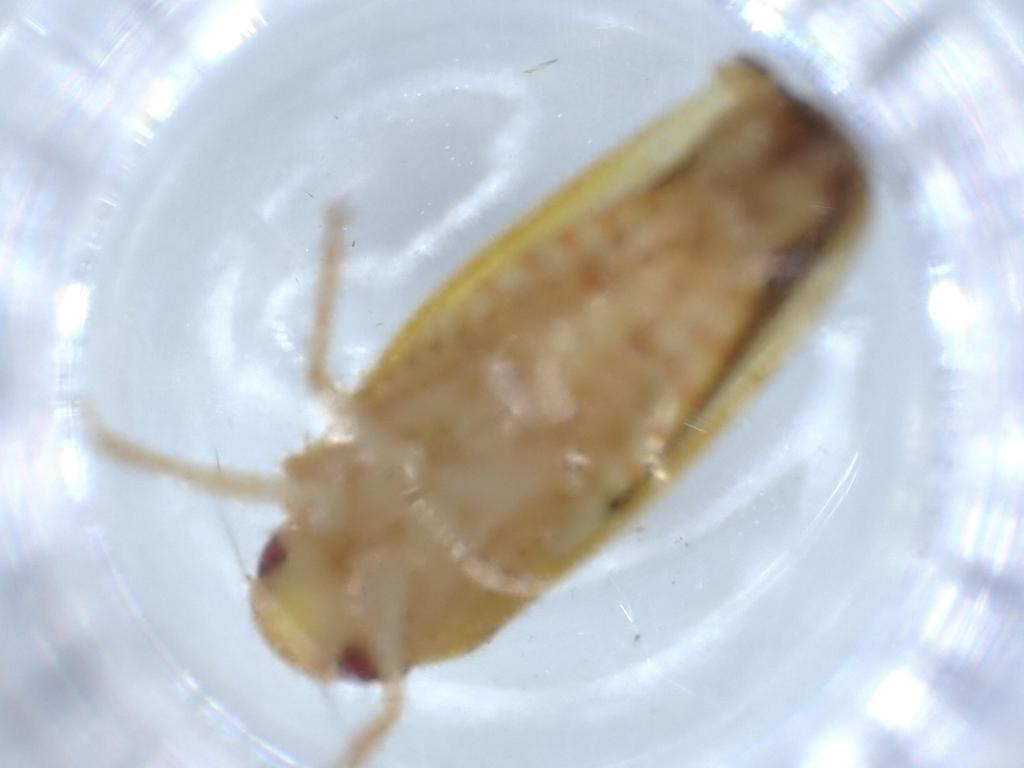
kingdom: Animalia
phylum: Arthropoda
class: Insecta
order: Hemiptera
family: Cicadellidae
